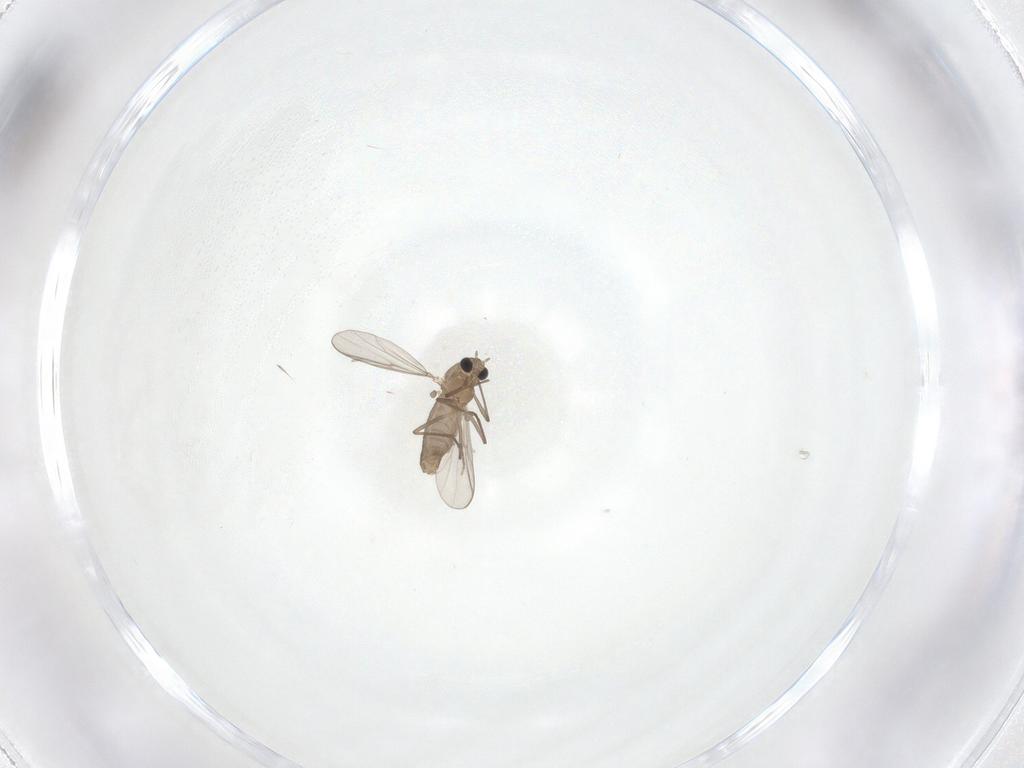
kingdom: Animalia
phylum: Arthropoda
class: Insecta
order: Diptera
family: Chironomidae
